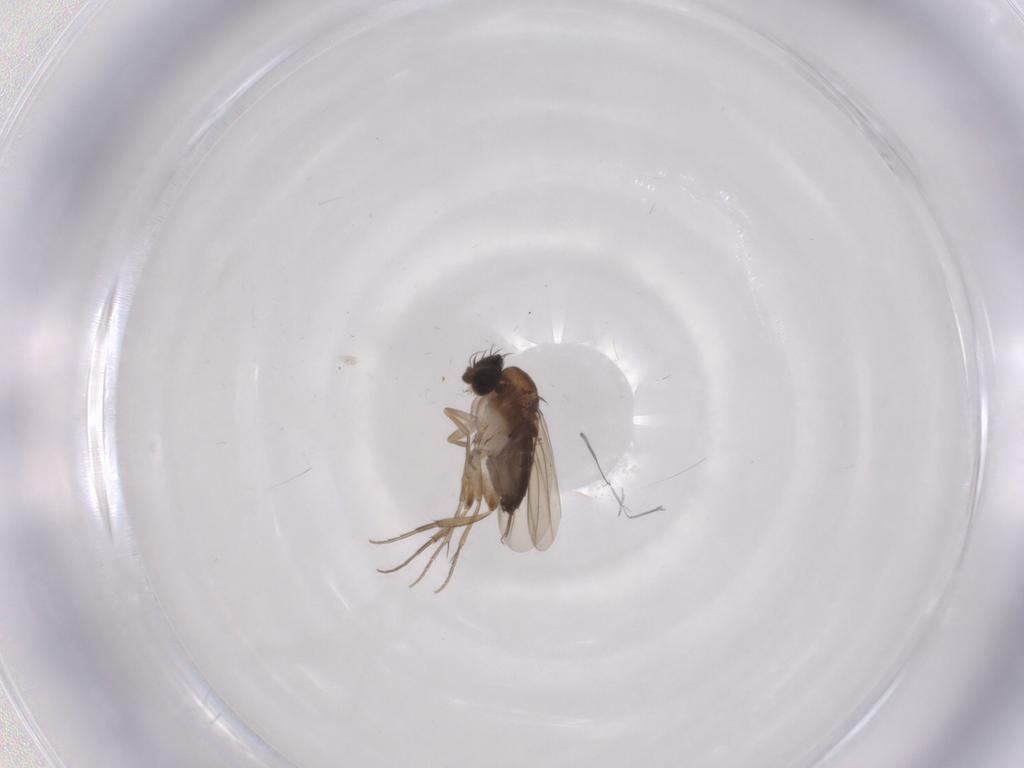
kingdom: Animalia
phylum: Arthropoda
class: Insecta
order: Diptera
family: Phoridae
